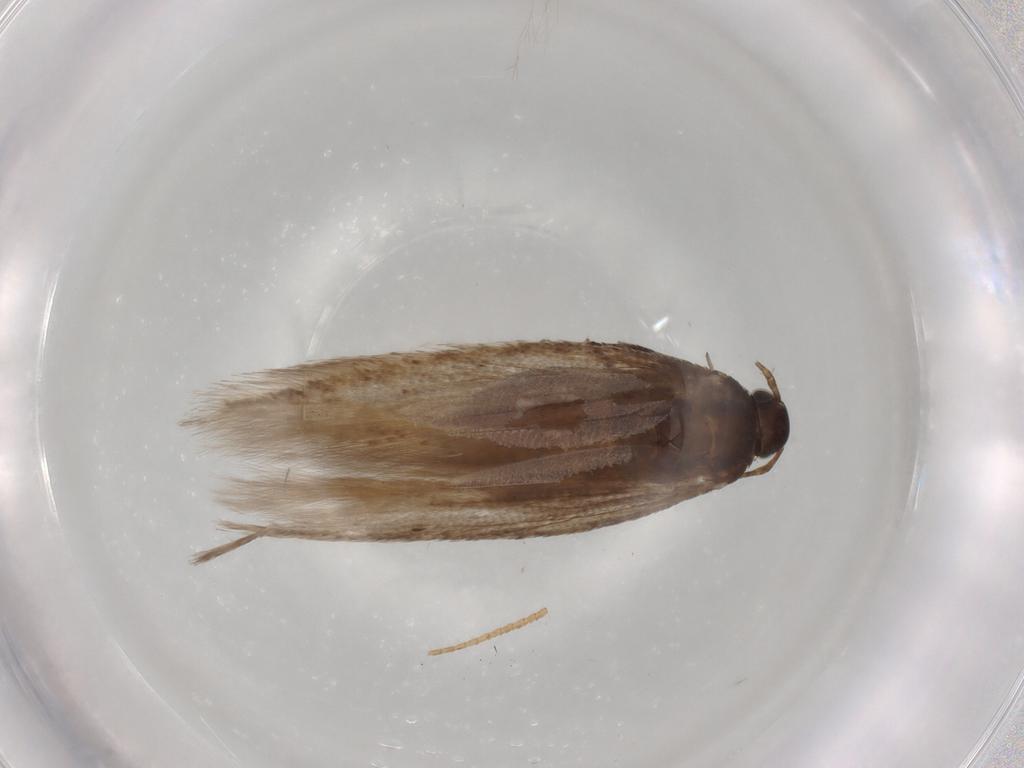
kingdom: Animalia
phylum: Arthropoda
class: Insecta
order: Lepidoptera
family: Gelechiidae
